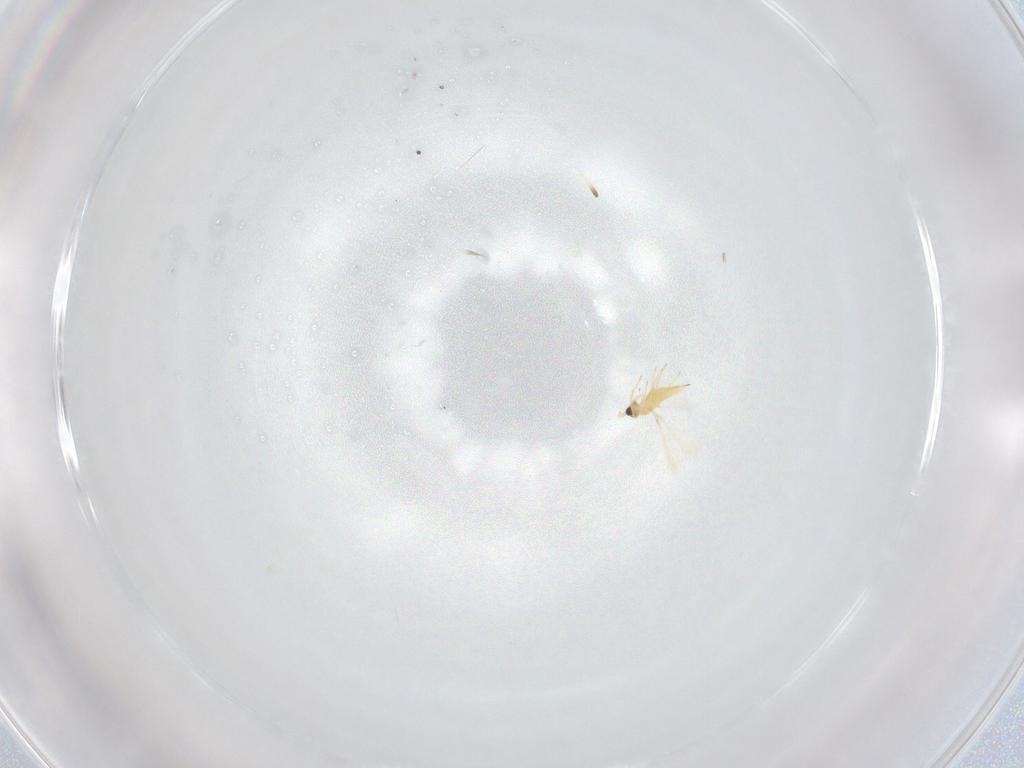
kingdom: Animalia
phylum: Arthropoda
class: Insecta
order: Hymenoptera
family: Mymaridae
